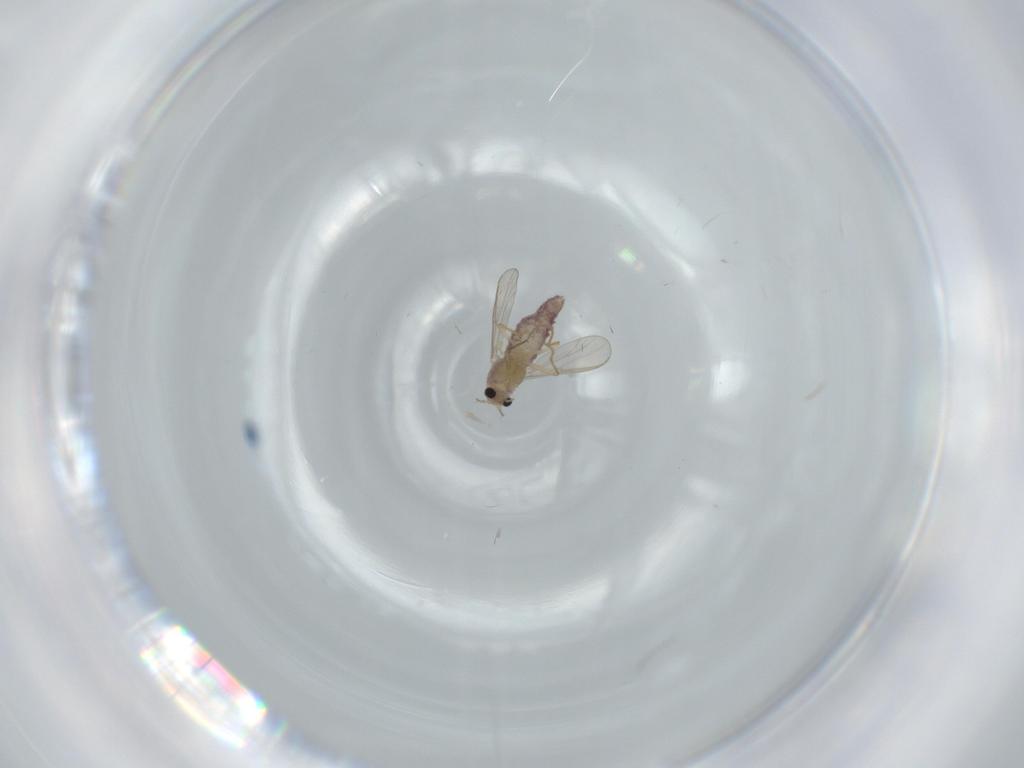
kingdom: Animalia
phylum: Arthropoda
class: Insecta
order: Diptera
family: Chironomidae
